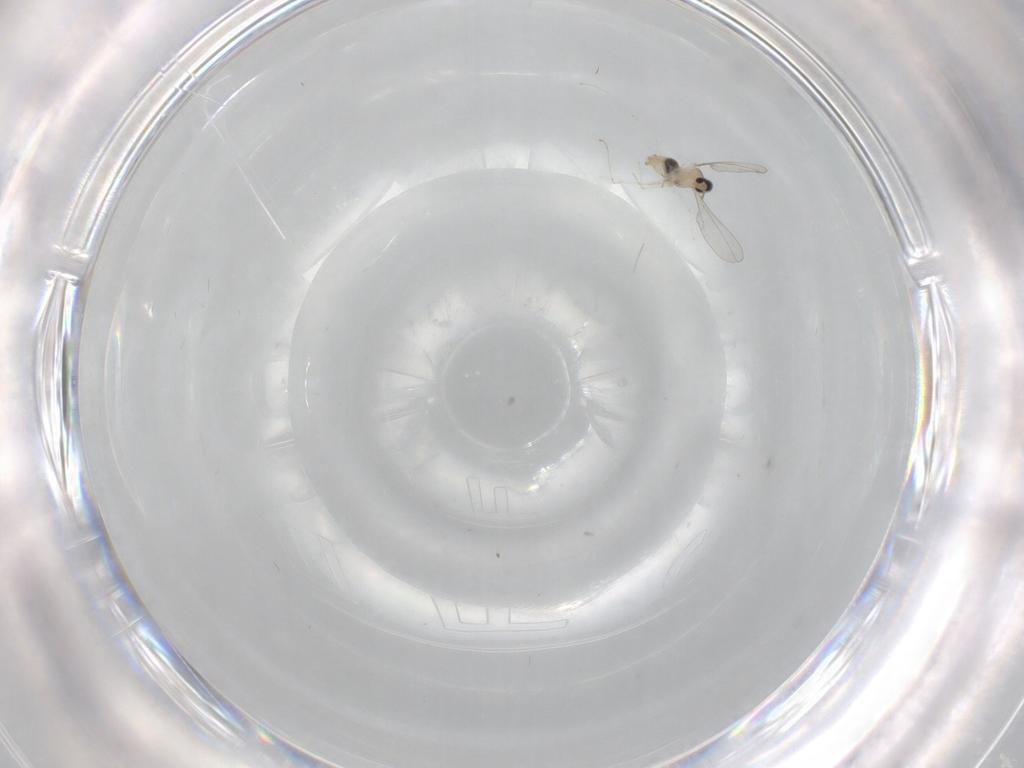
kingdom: Animalia
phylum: Arthropoda
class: Insecta
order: Diptera
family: Cecidomyiidae
